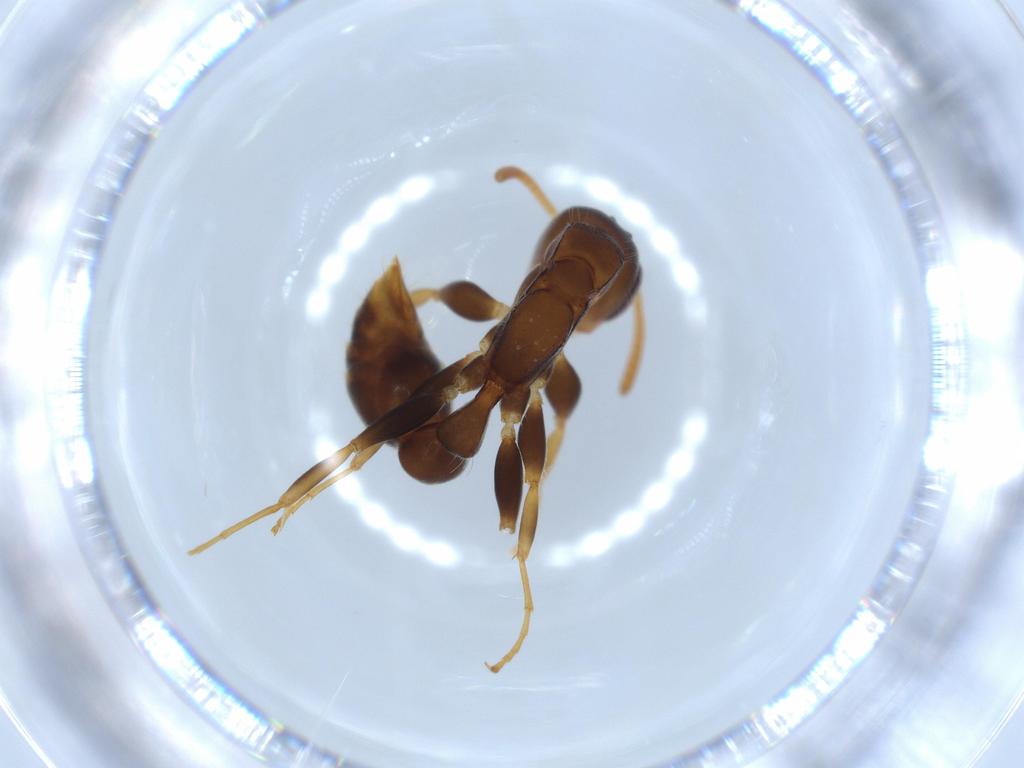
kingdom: Animalia
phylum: Arthropoda
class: Insecta
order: Hymenoptera
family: Formicidae
